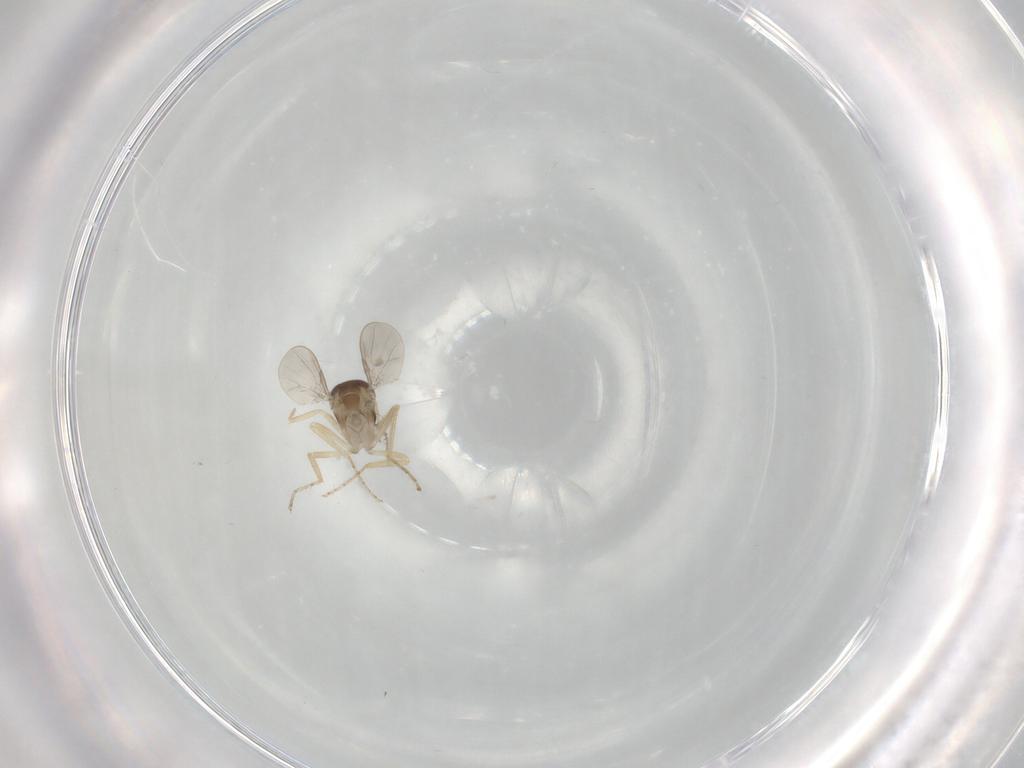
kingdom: Animalia
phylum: Arthropoda
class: Insecta
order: Diptera
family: Ceratopogonidae
